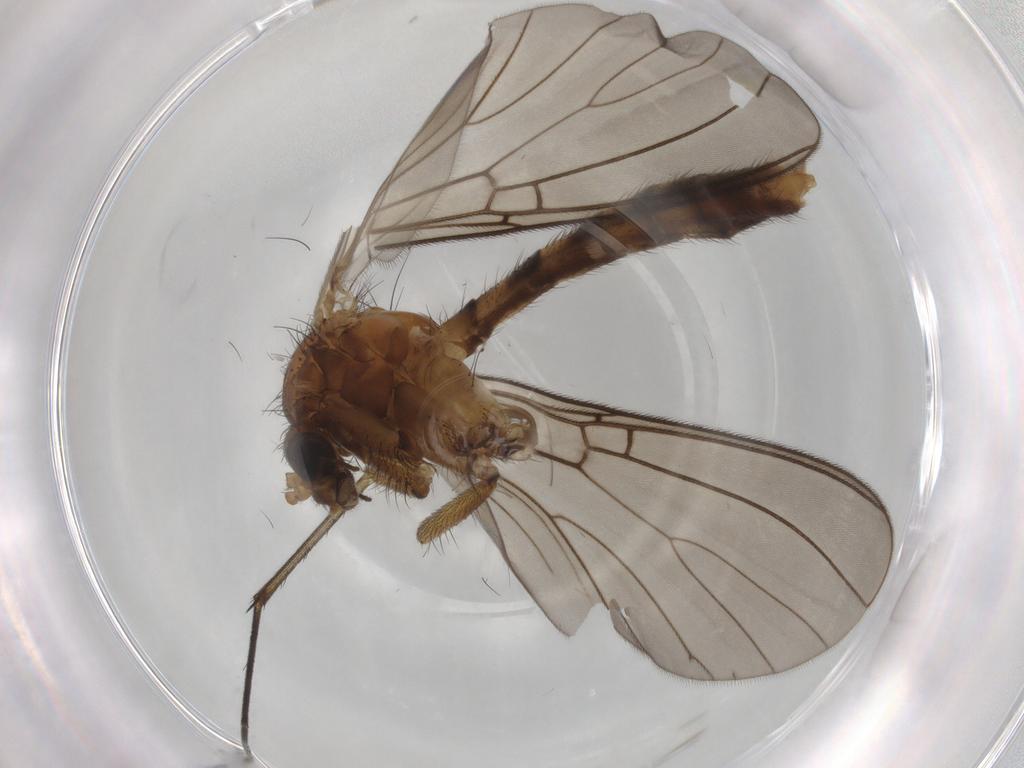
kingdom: Animalia
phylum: Arthropoda
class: Insecta
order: Diptera
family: Mycetophilidae
